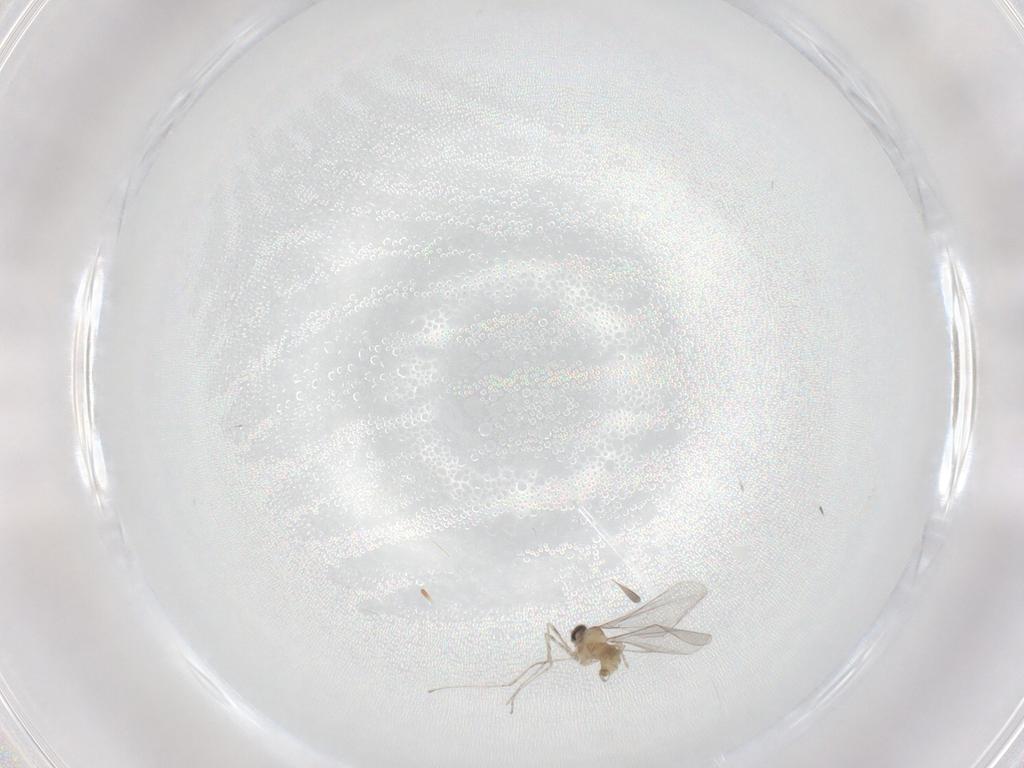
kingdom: Animalia
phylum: Arthropoda
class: Insecta
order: Diptera
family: Cecidomyiidae
